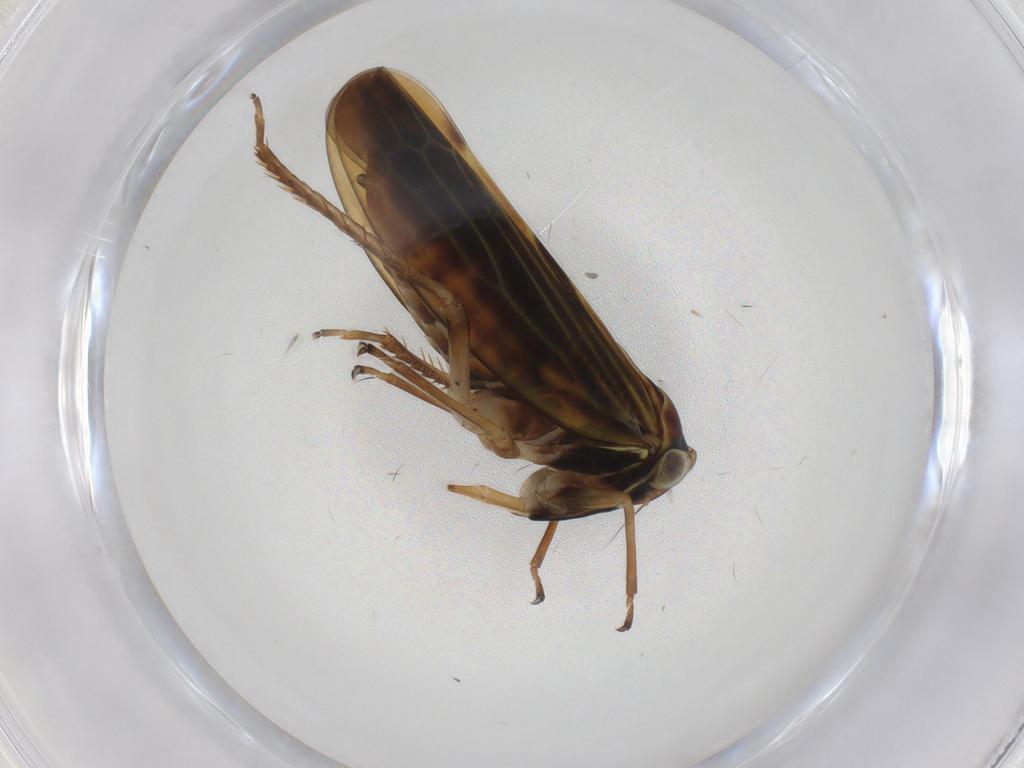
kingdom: Animalia
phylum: Arthropoda
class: Insecta
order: Hemiptera
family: Cicadellidae
